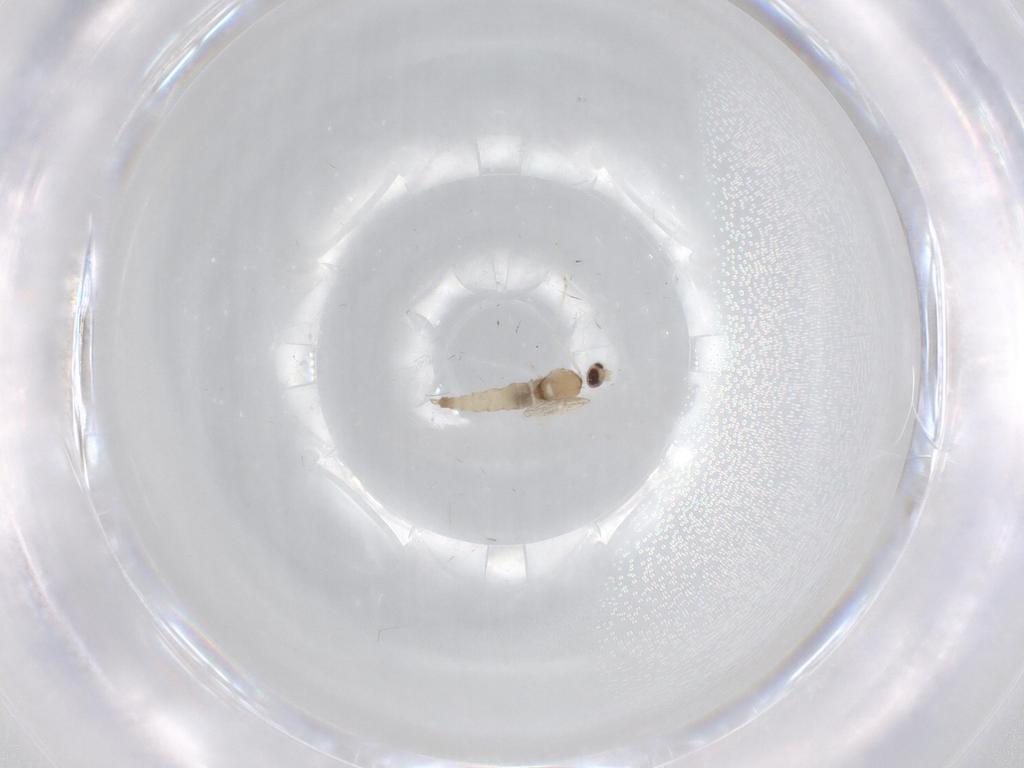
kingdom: Animalia
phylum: Arthropoda
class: Insecta
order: Diptera
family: Cecidomyiidae
